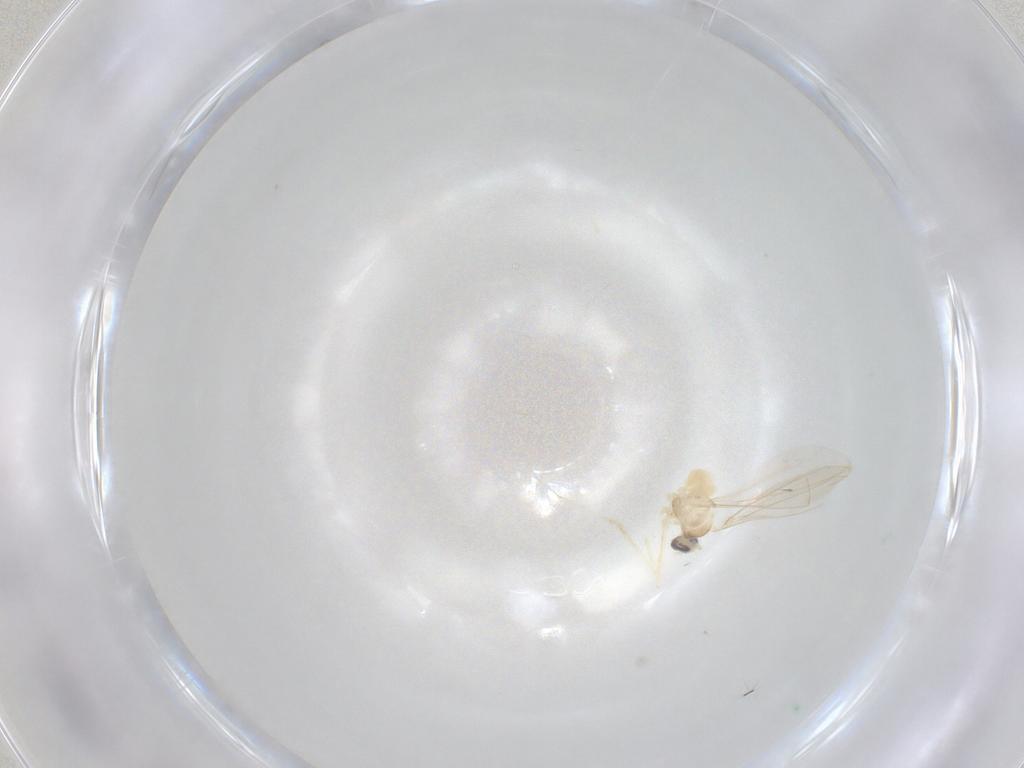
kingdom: Animalia
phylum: Arthropoda
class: Insecta
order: Diptera
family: Cecidomyiidae
